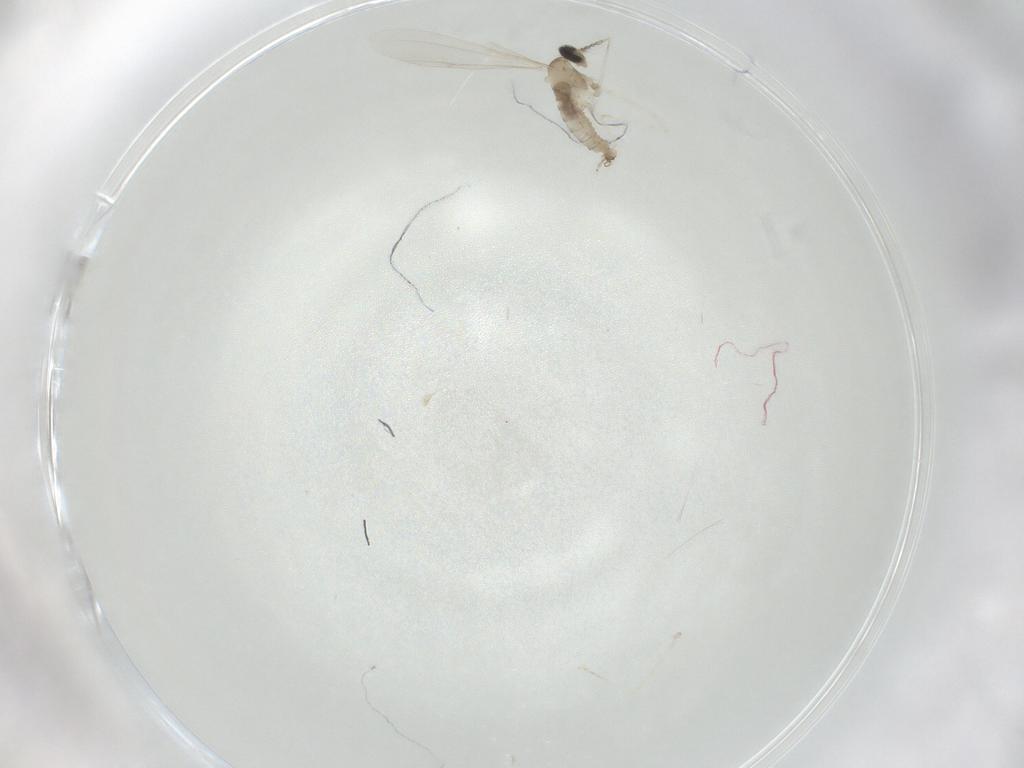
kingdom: Animalia
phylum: Arthropoda
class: Insecta
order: Diptera
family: Cecidomyiidae
